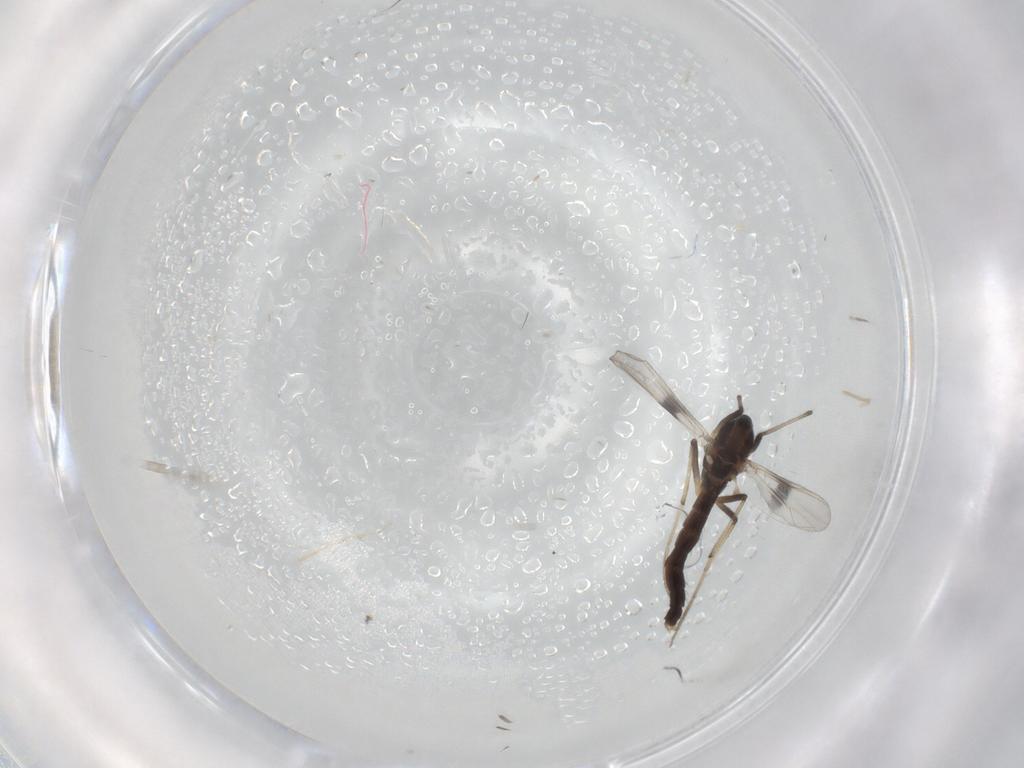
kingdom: Animalia
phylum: Arthropoda
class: Insecta
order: Diptera
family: Chironomidae
